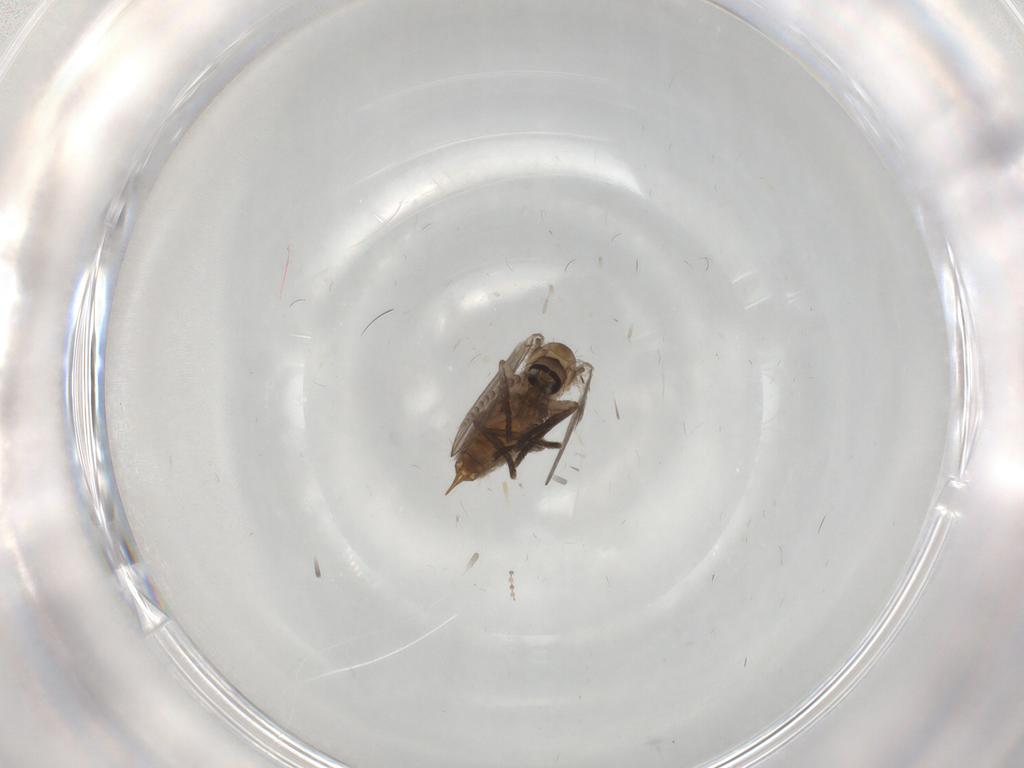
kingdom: Animalia
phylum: Arthropoda
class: Insecta
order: Diptera
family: Psychodidae
